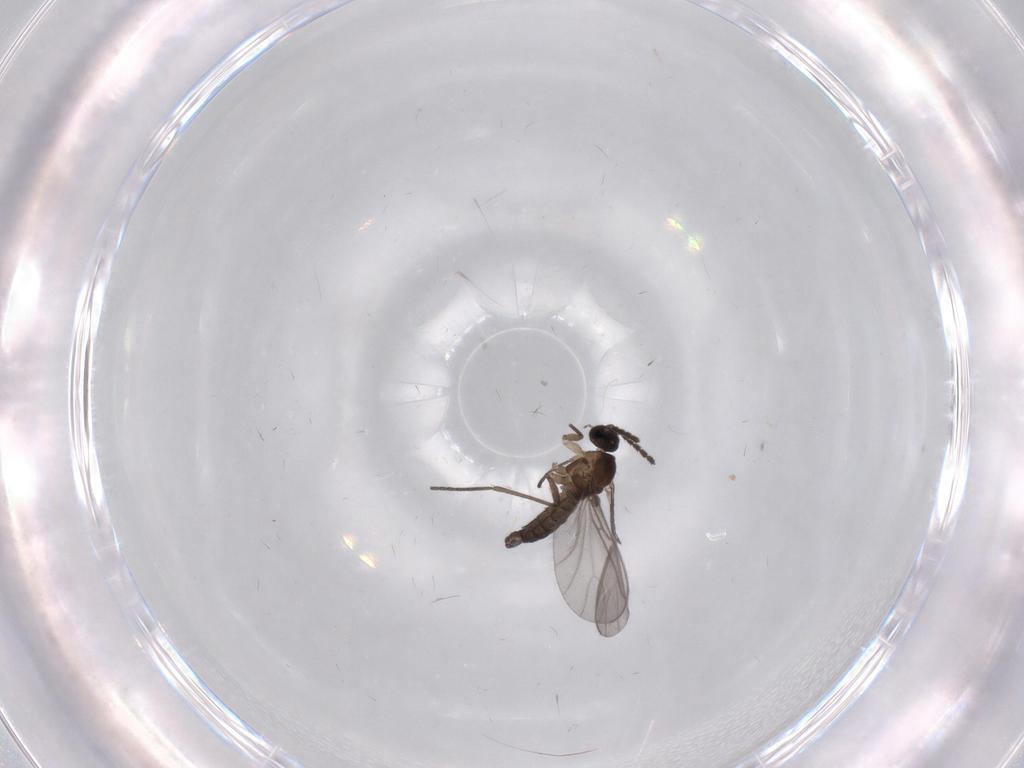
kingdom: Animalia
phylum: Arthropoda
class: Insecta
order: Diptera
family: Sciaridae
